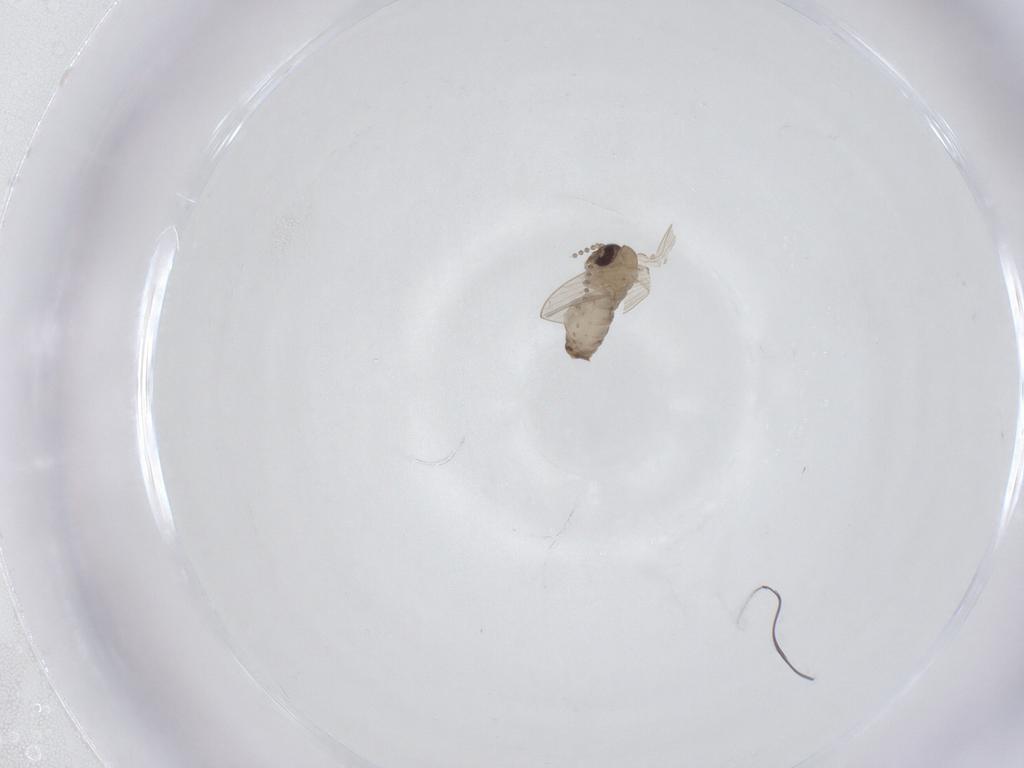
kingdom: Animalia
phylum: Arthropoda
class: Insecta
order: Diptera
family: Psychodidae
